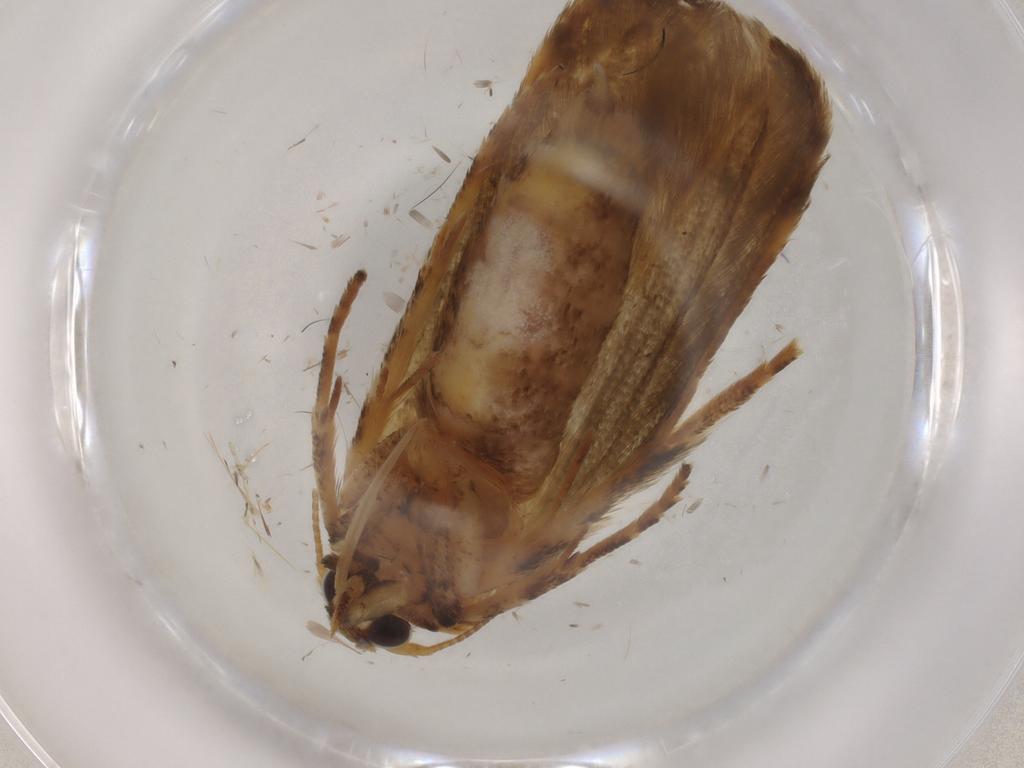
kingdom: Animalia
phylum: Arthropoda
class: Insecta
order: Lepidoptera
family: Blastobasidae
